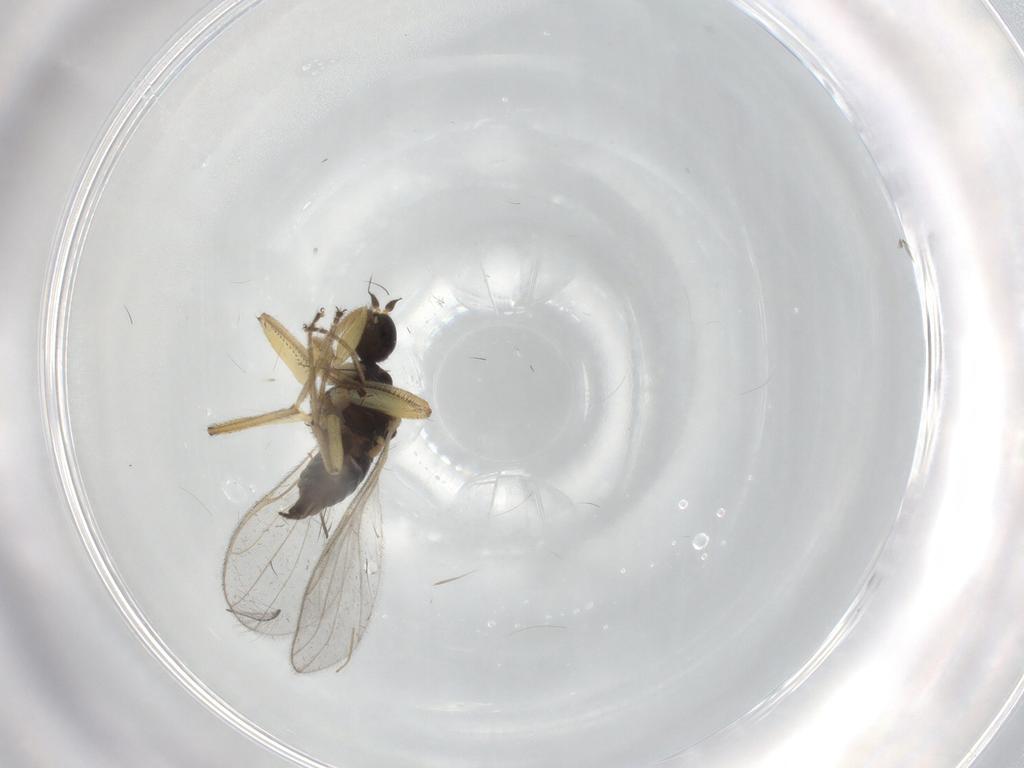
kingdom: Animalia
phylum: Arthropoda
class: Insecta
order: Diptera
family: Hybotidae
